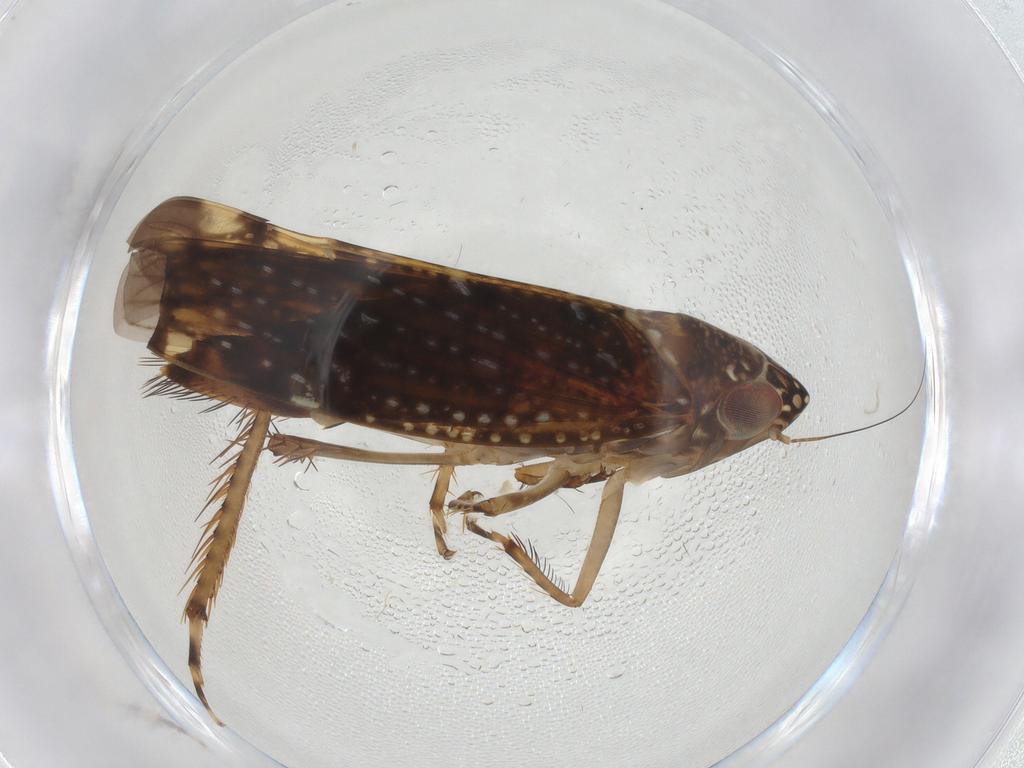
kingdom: Animalia
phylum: Arthropoda
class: Insecta
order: Hemiptera
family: Cicadellidae
